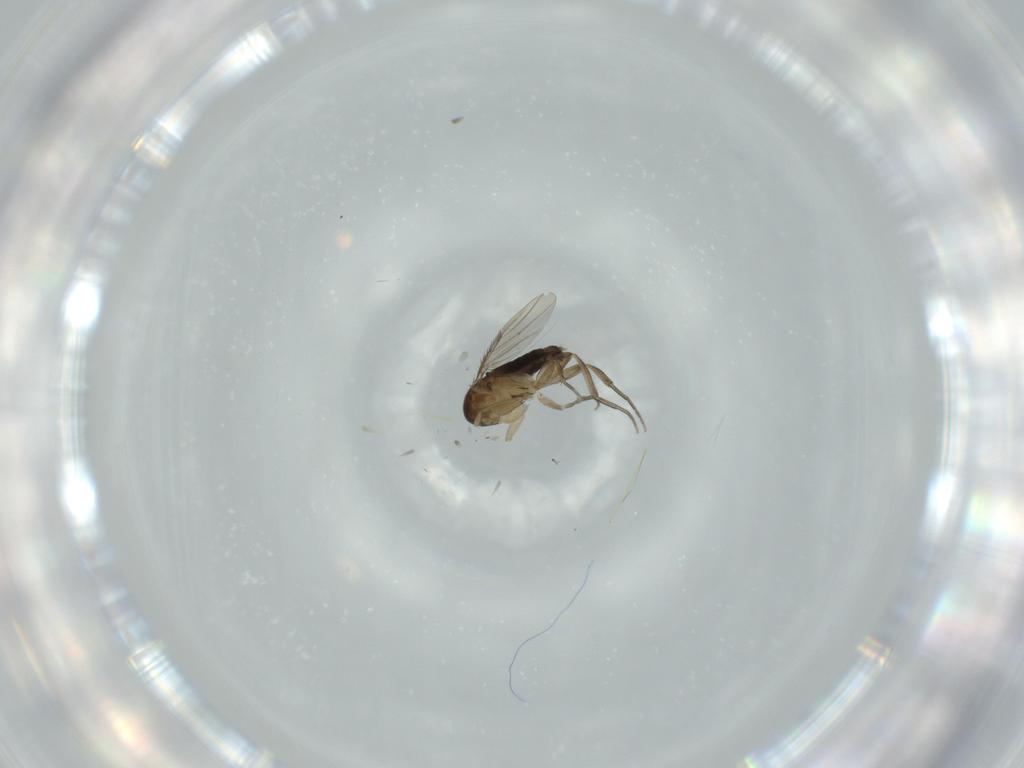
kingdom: Animalia
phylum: Arthropoda
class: Insecta
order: Diptera
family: Phoridae
